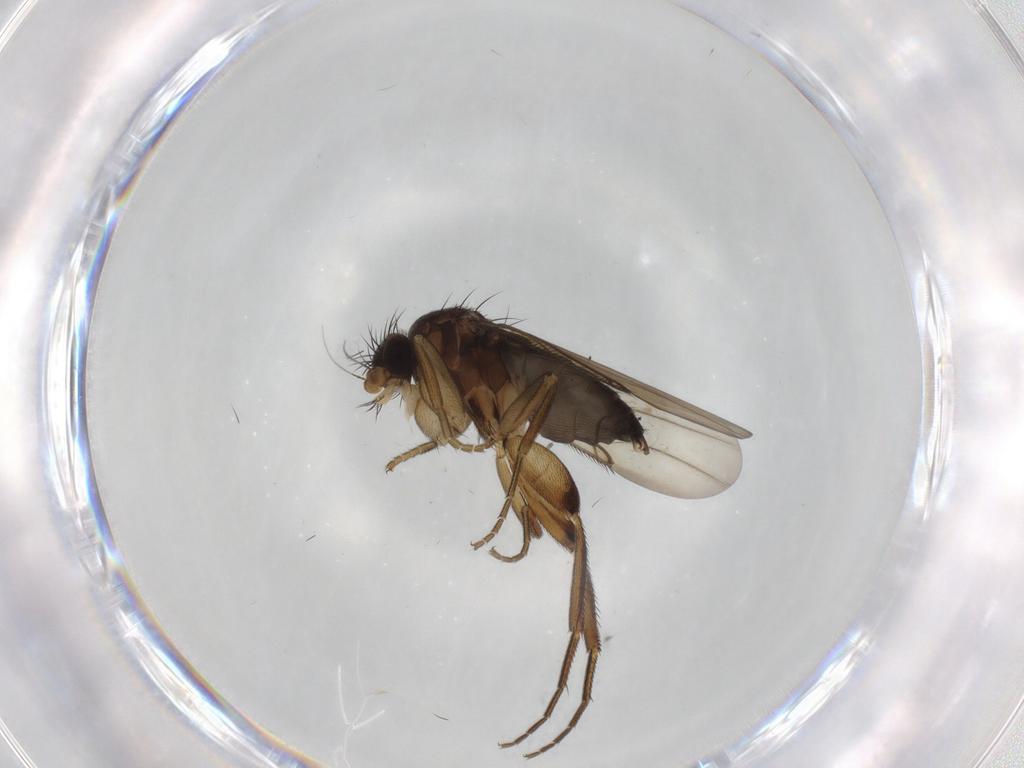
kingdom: Animalia
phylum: Arthropoda
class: Insecta
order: Diptera
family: Phoridae
